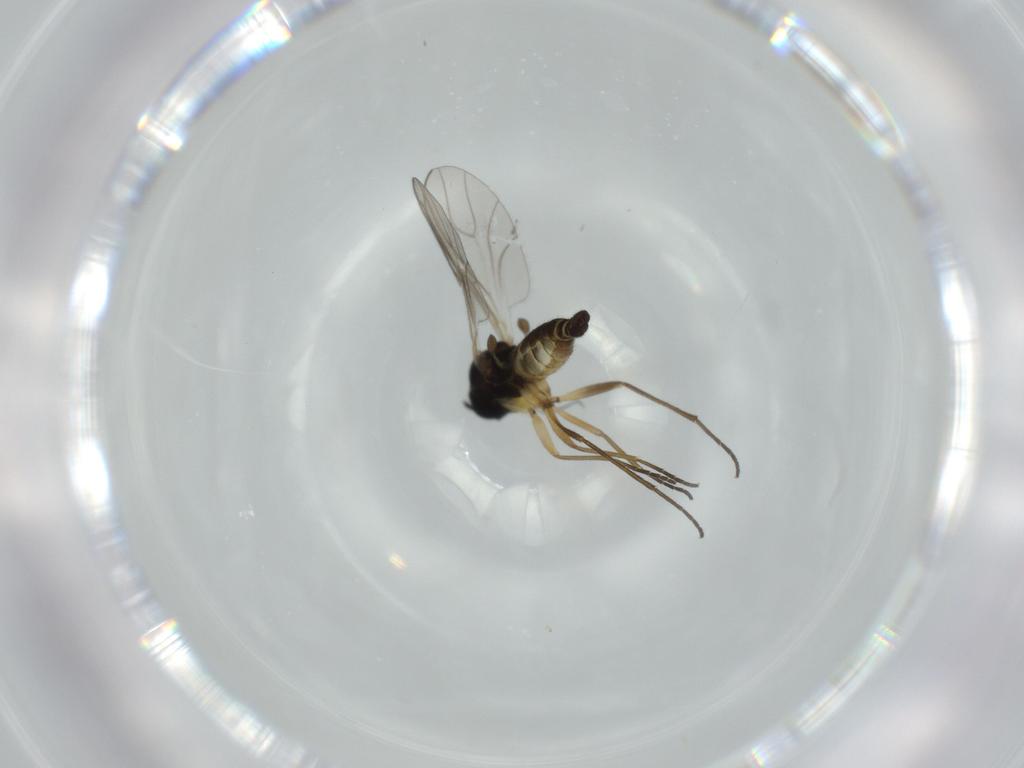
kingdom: Animalia
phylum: Arthropoda
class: Insecta
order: Diptera
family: Sciaridae
